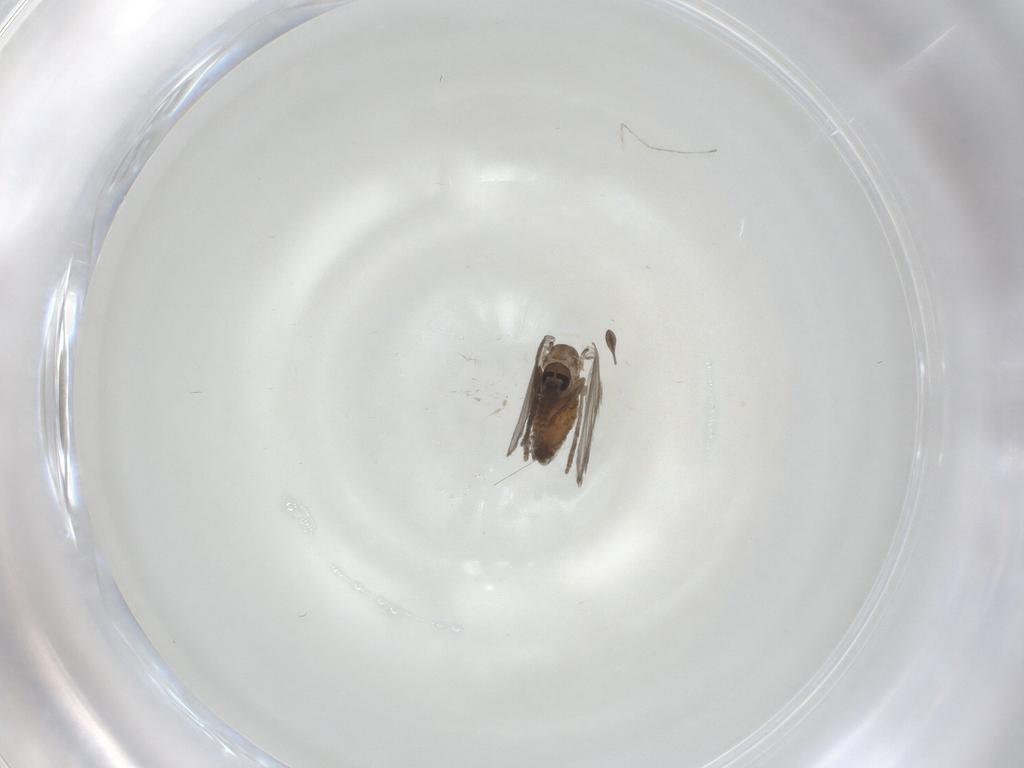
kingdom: Animalia
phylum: Arthropoda
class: Insecta
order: Diptera
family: Psychodidae
